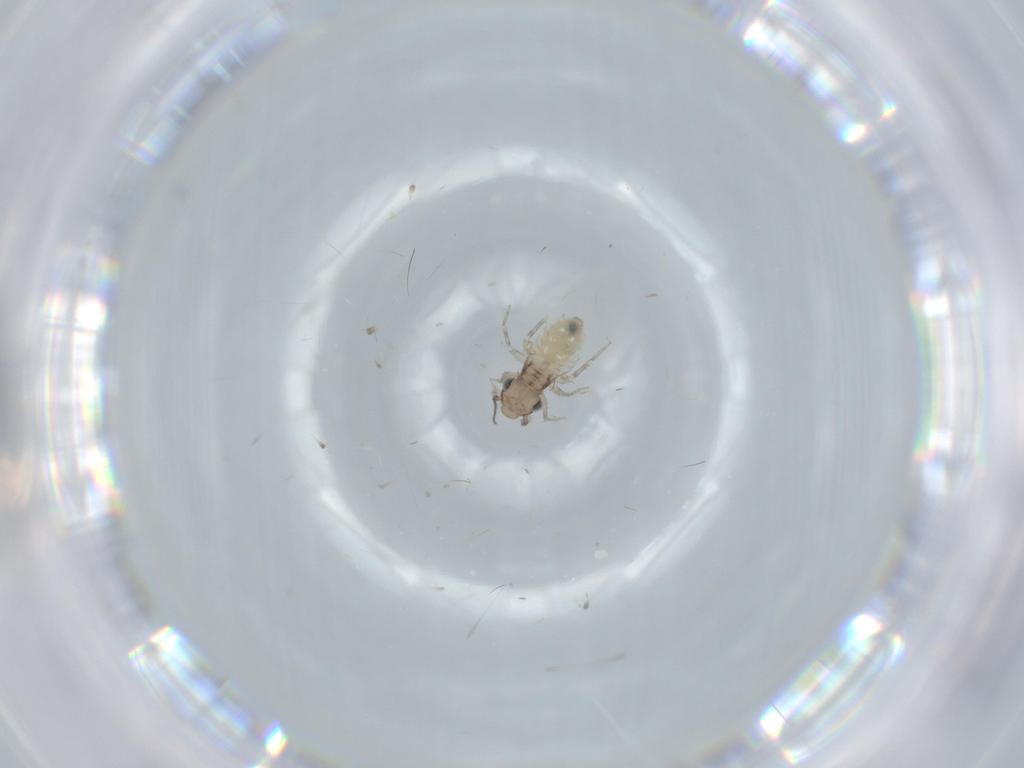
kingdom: Animalia
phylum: Arthropoda
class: Insecta
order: Psocodea
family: Lepidopsocidae
